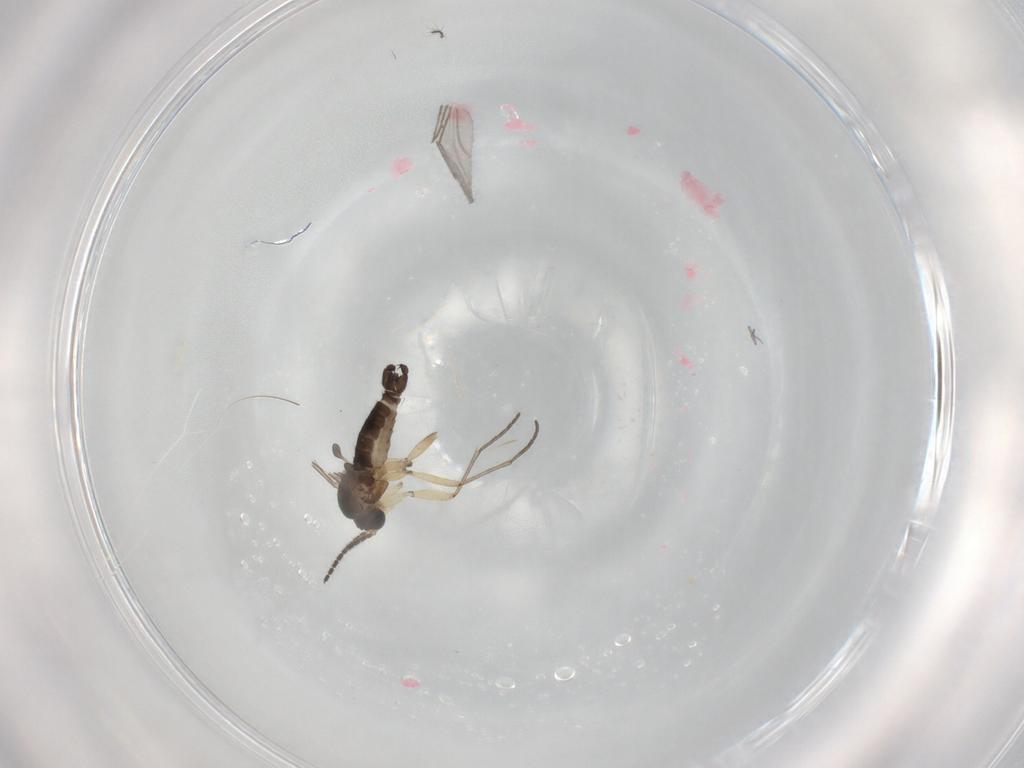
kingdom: Animalia
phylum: Arthropoda
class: Insecta
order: Diptera
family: Chironomidae
